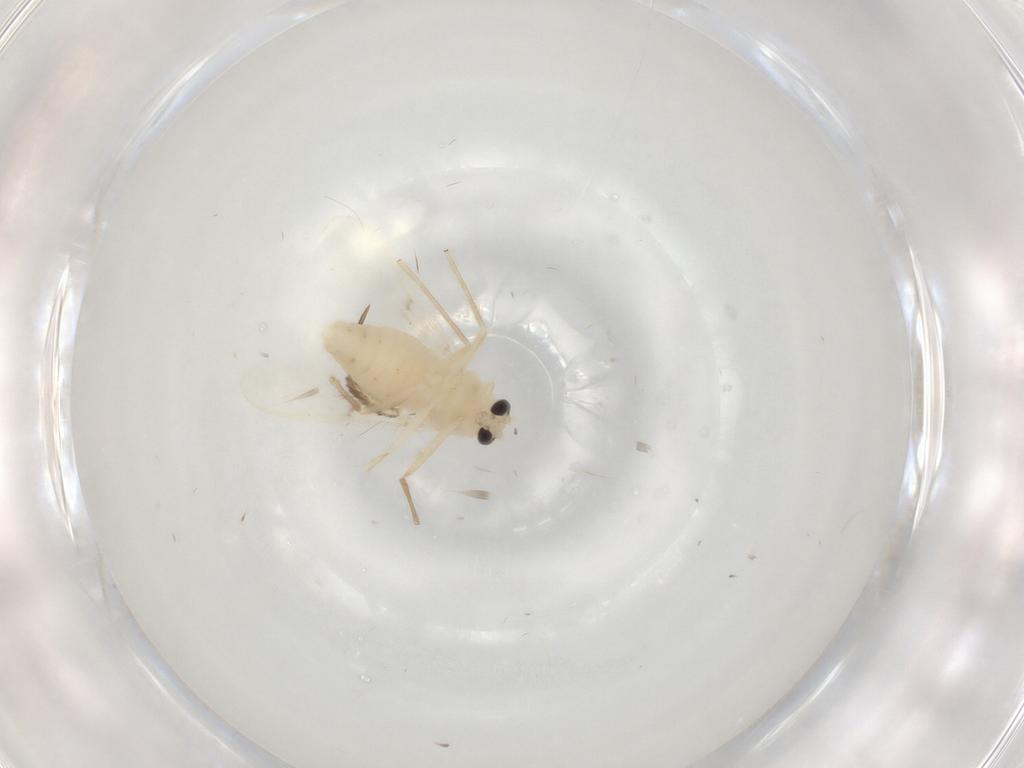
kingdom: Animalia
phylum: Arthropoda
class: Insecta
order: Diptera
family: Chironomidae
